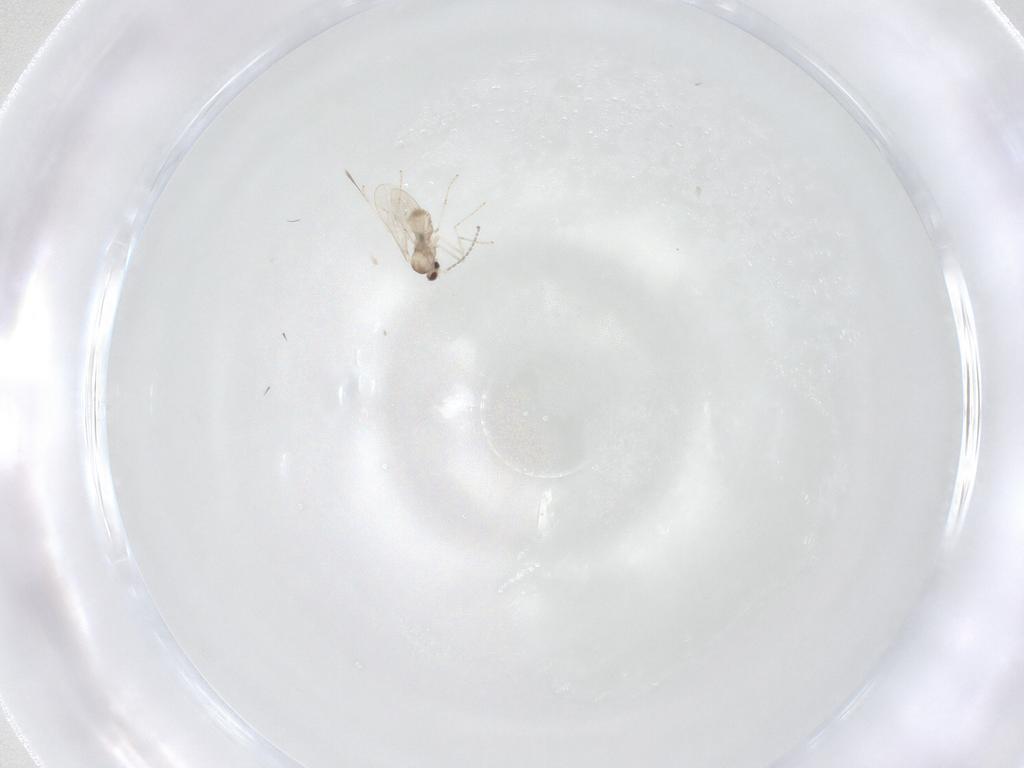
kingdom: Animalia
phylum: Arthropoda
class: Insecta
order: Diptera
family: Cecidomyiidae
